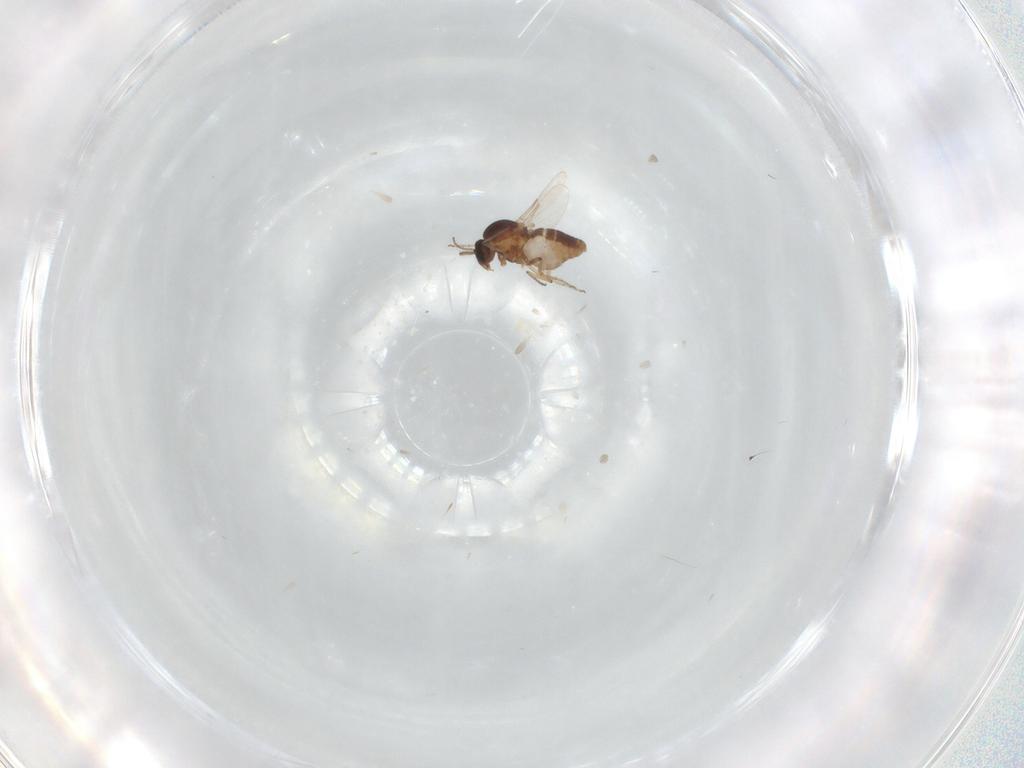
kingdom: Animalia
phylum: Arthropoda
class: Insecta
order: Diptera
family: Ceratopogonidae
